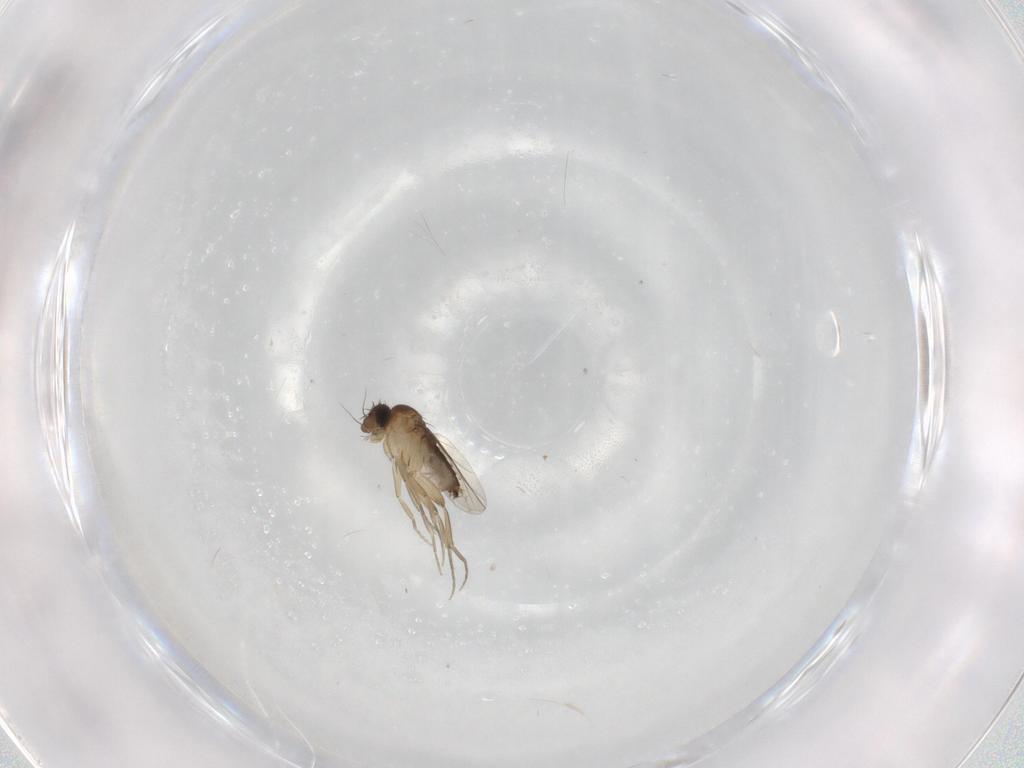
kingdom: Animalia
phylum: Arthropoda
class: Insecta
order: Diptera
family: Phoridae
